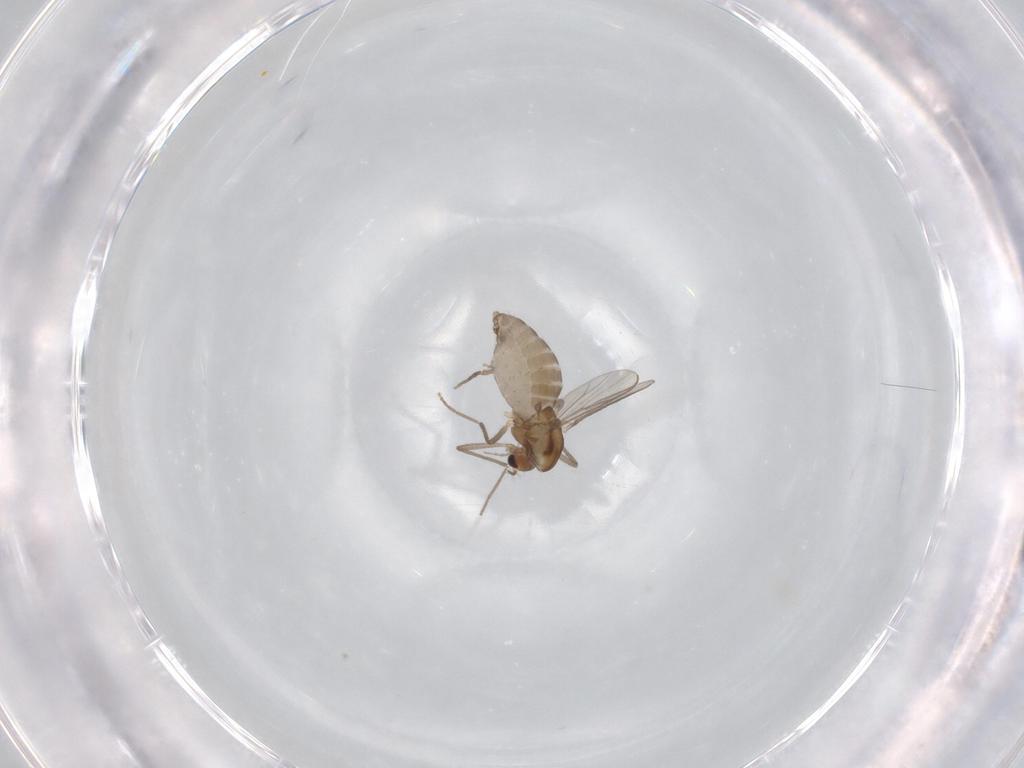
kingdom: Animalia
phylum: Arthropoda
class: Insecta
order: Diptera
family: Chironomidae
